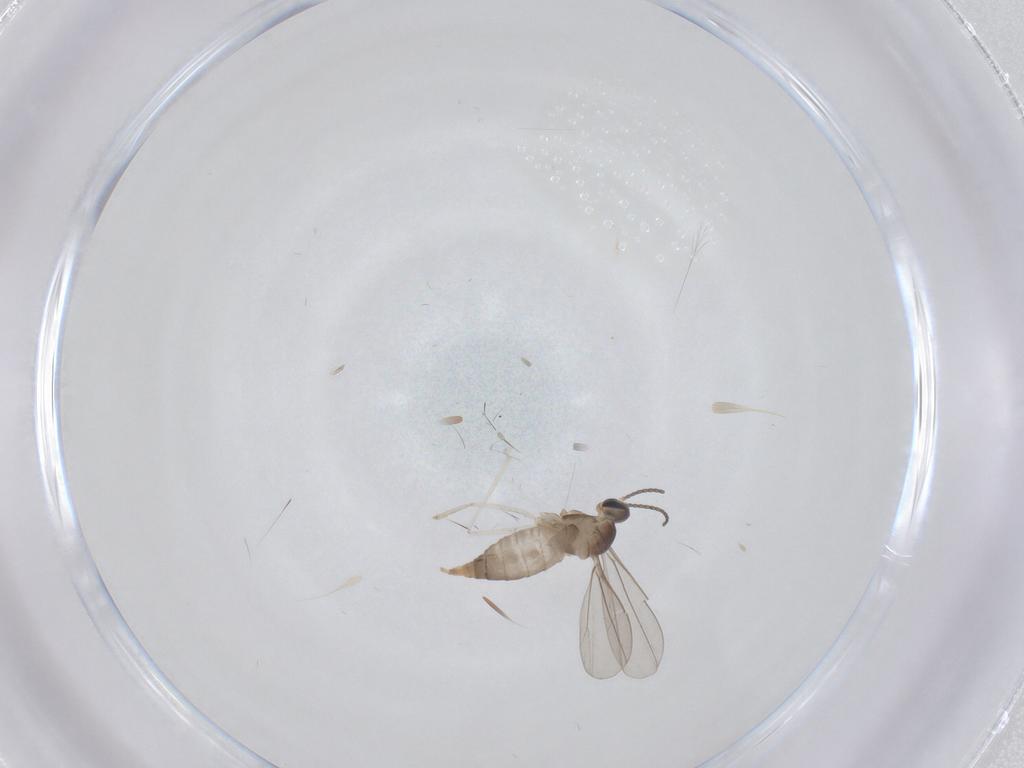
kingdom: Animalia
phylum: Arthropoda
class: Insecta
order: Diptera
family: Cecidomyiidae
